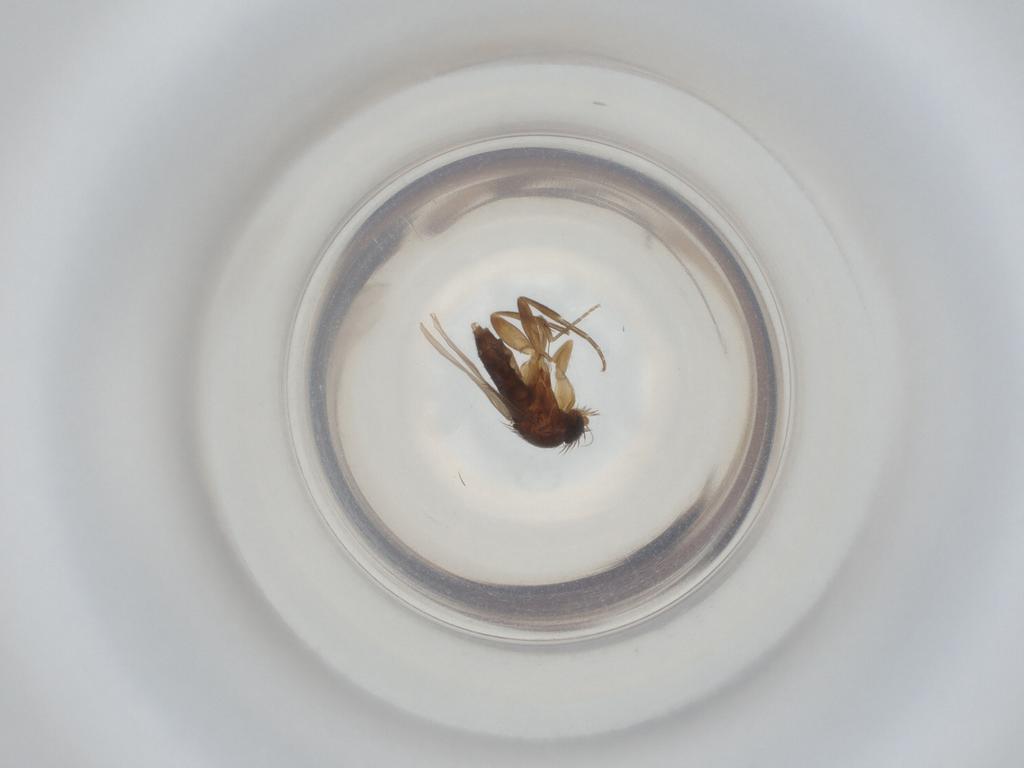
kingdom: Animalia
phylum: Arthropoda
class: Insecta
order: Diptera
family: Phoridae
